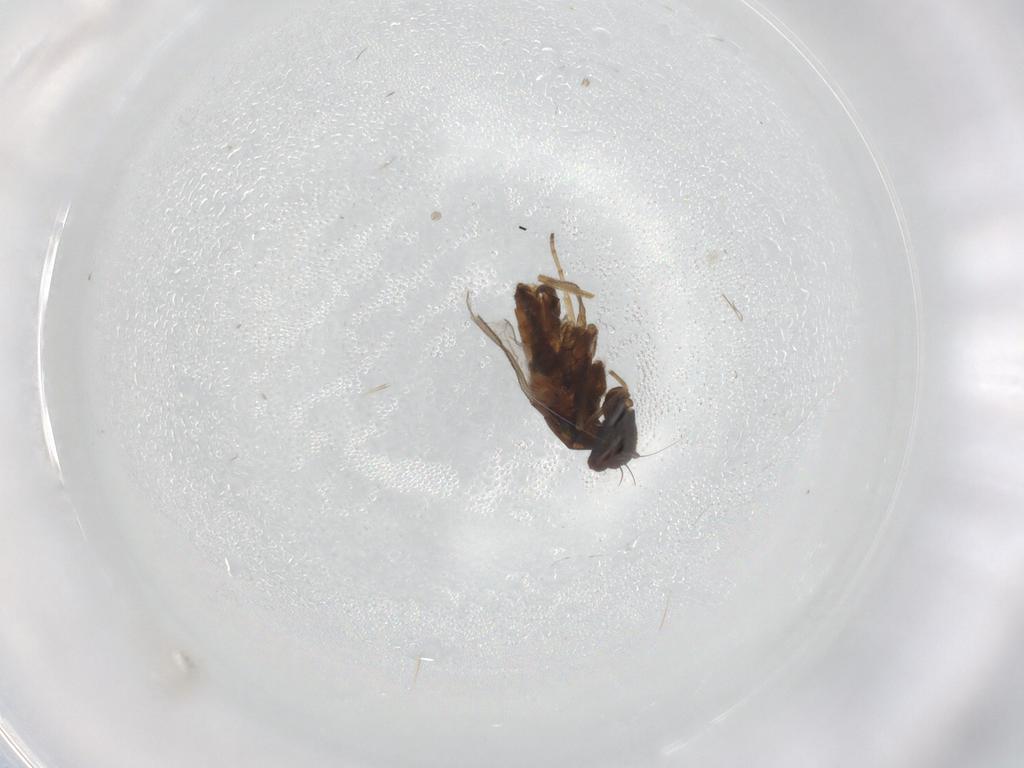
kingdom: Animalia
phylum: Arthropoda
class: Insecta
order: Diptera
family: Dolichopodidae
